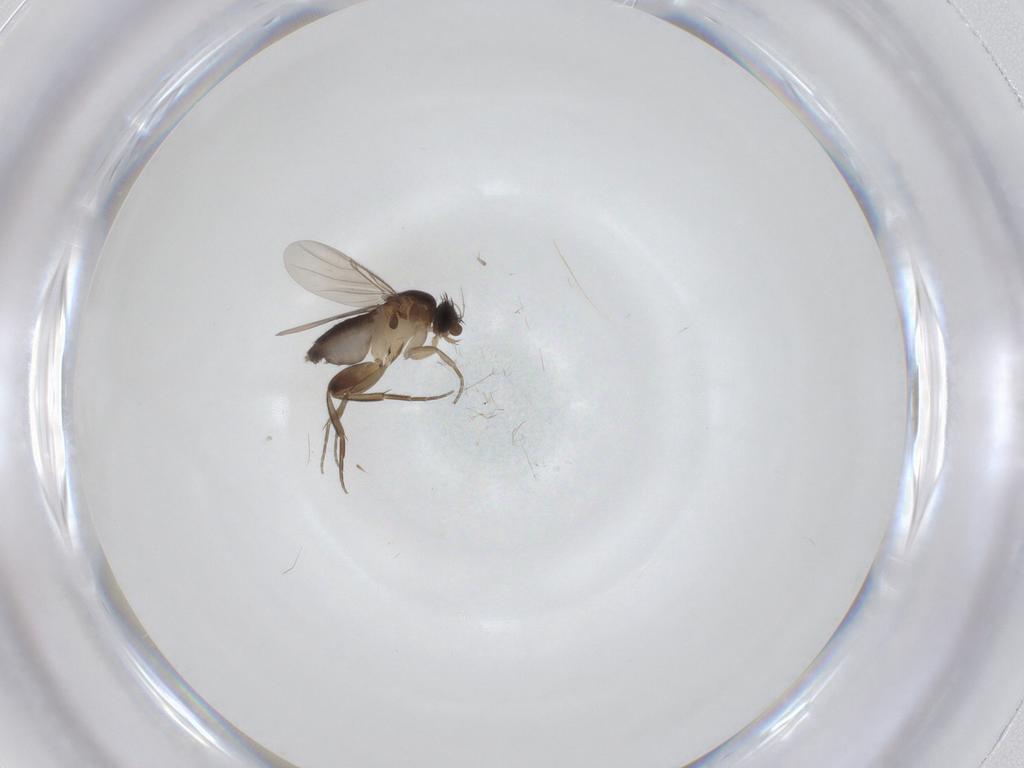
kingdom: Animalia
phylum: Arthropoda
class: Insecta
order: Diptera
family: Phoridae
